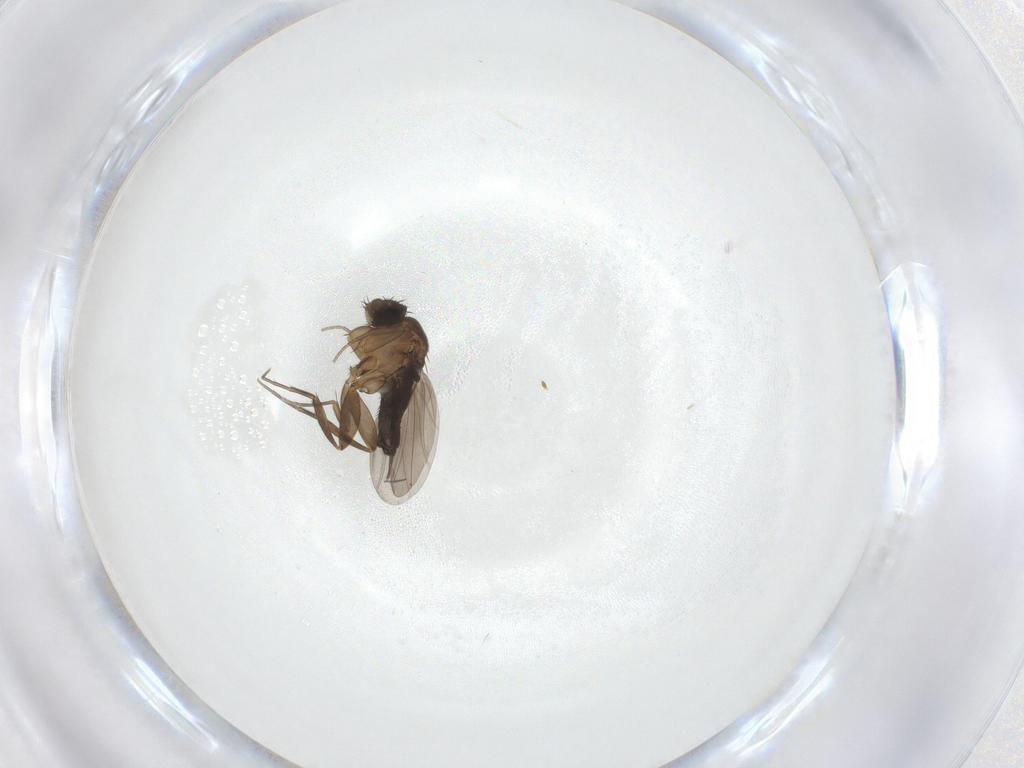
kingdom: Animalia
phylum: Arthropoda
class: Insecta
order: Diptera
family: Phoridae
